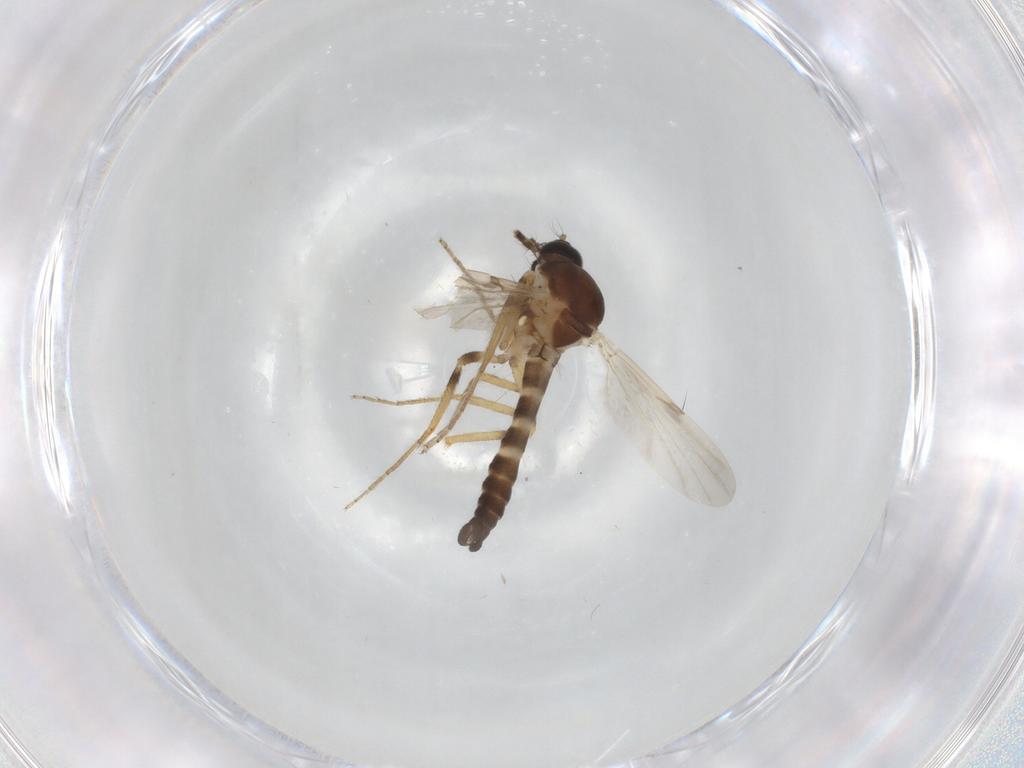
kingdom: Animalia
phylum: Arthropoda
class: Insecta
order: Diptera
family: Ceratopogonidae
